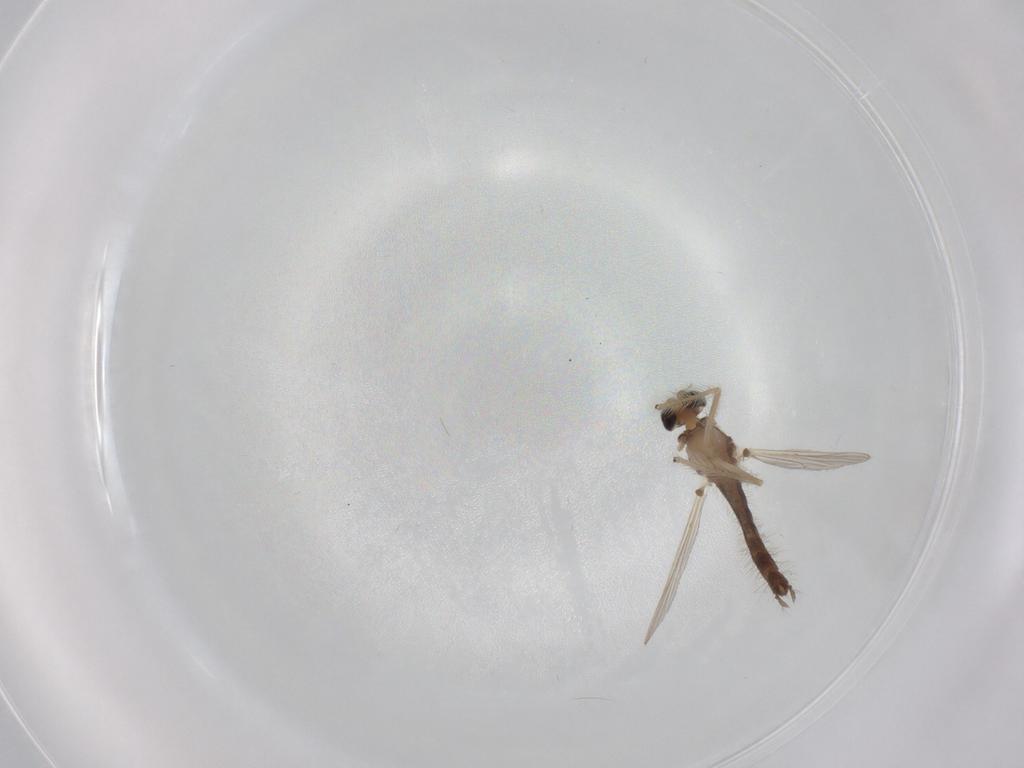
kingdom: Animalia
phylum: Arthropoda
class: Insecta
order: Diptera
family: Chironomidae
